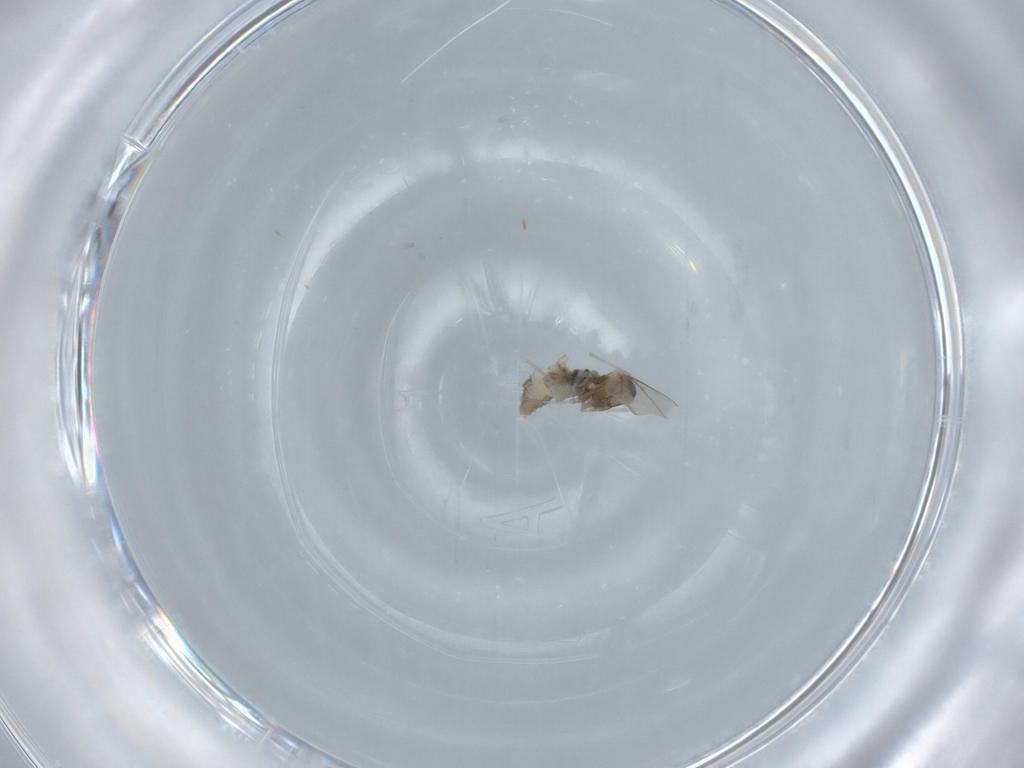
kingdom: Animalia
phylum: Arthropoda
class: Insecta
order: Diptera
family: Cecidomyiidae
